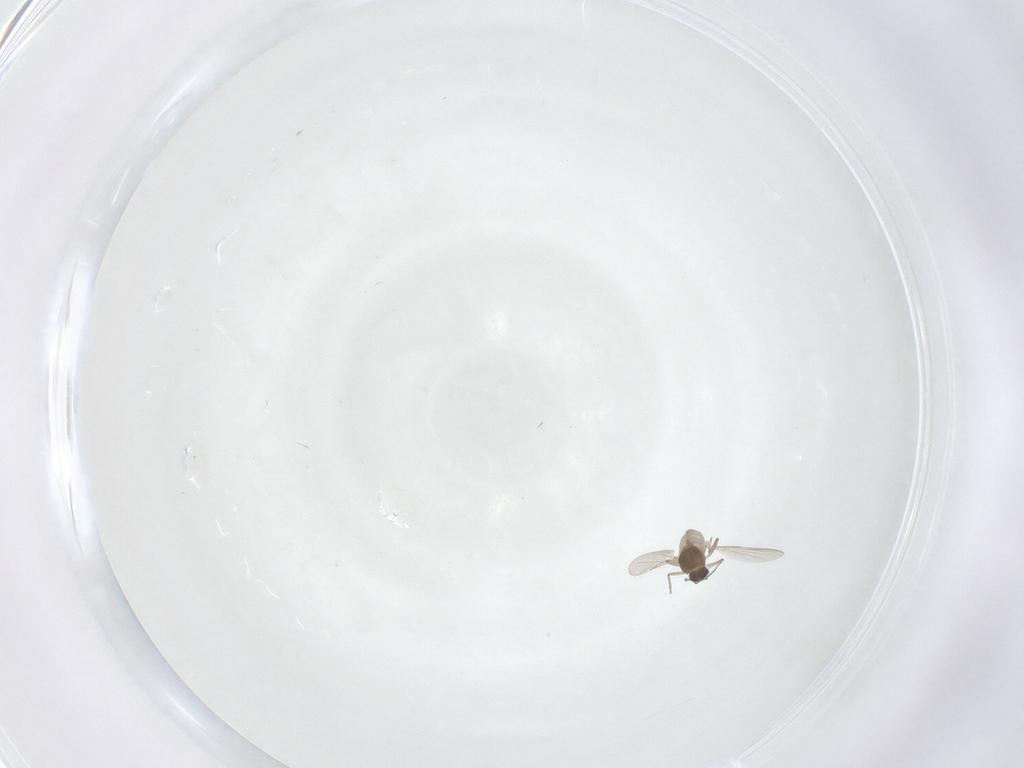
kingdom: Animalia
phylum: Arthropoda
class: Insecta
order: Diptera
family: Ceratopogonidae
